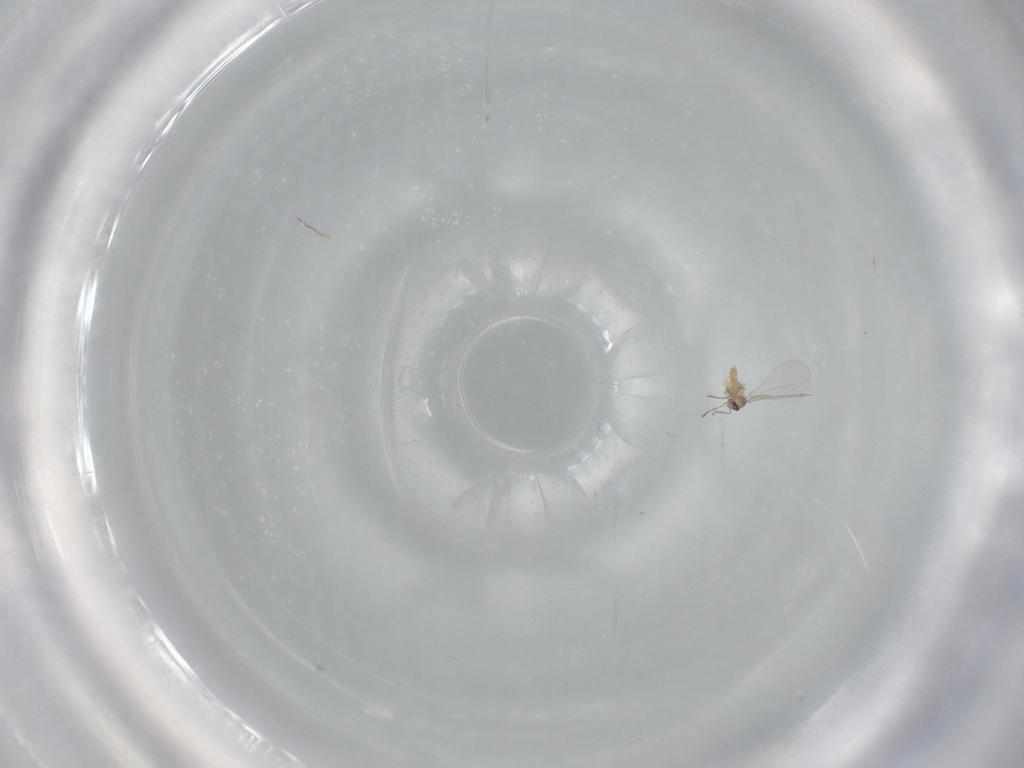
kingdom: Animalia
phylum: Arthropoda
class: Insecta
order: Diptera
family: Cecidomyiidae
